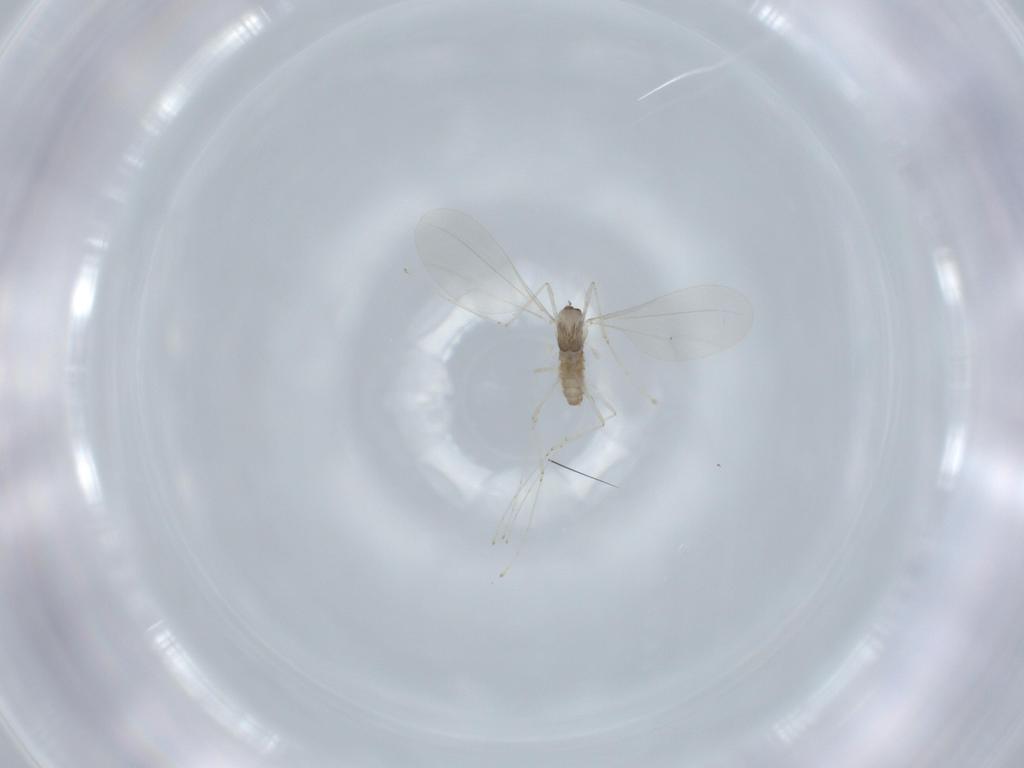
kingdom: Animalia
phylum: Arthropoda
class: Insecta
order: Diptera
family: Cecidomyiidae
